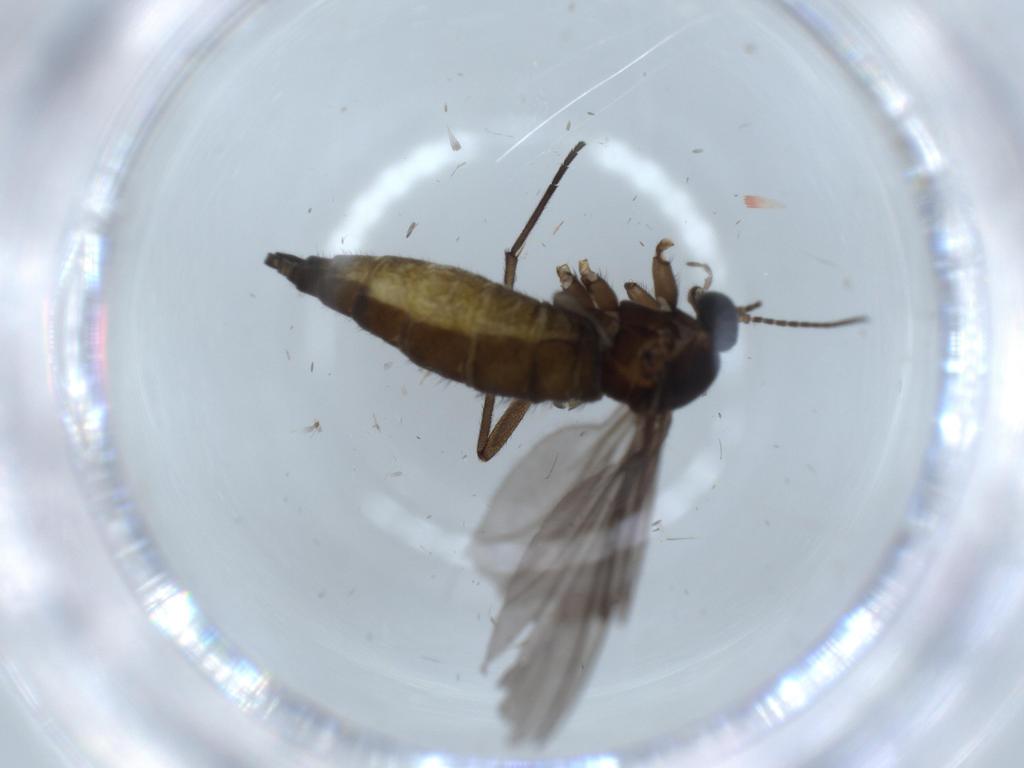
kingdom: Animalia
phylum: Arthropoda
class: Insecta
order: Diptera
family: Sciaridae
